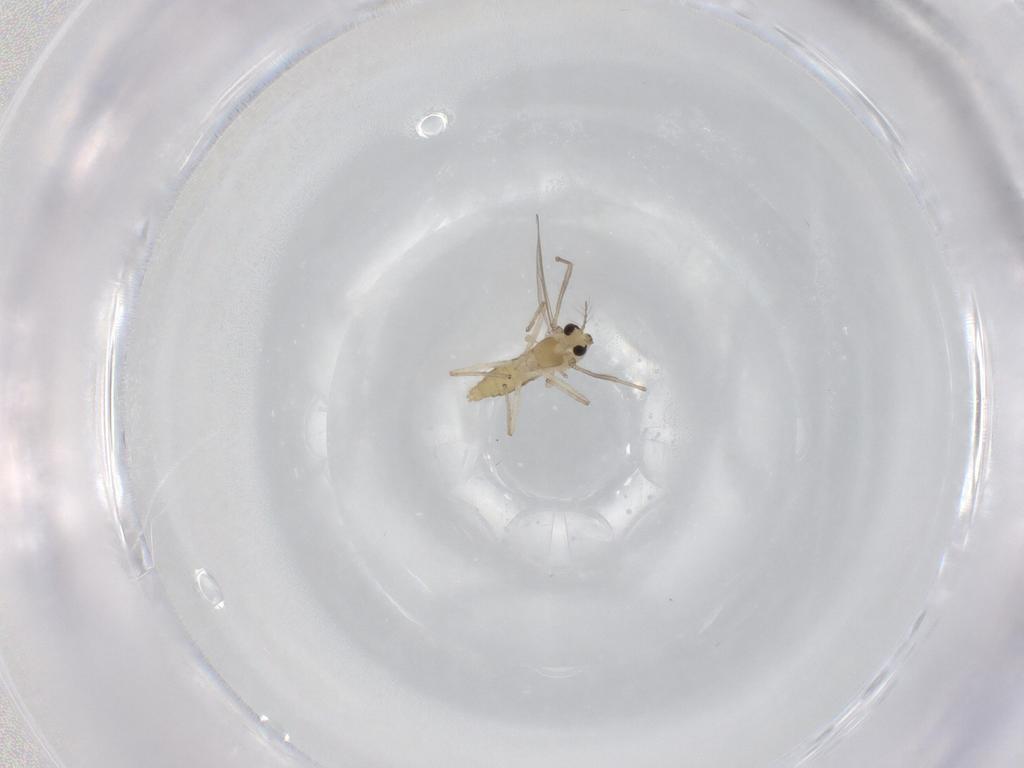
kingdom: Animalia
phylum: Arthropoda
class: Insecta
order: Diptera
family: Chironomidae
